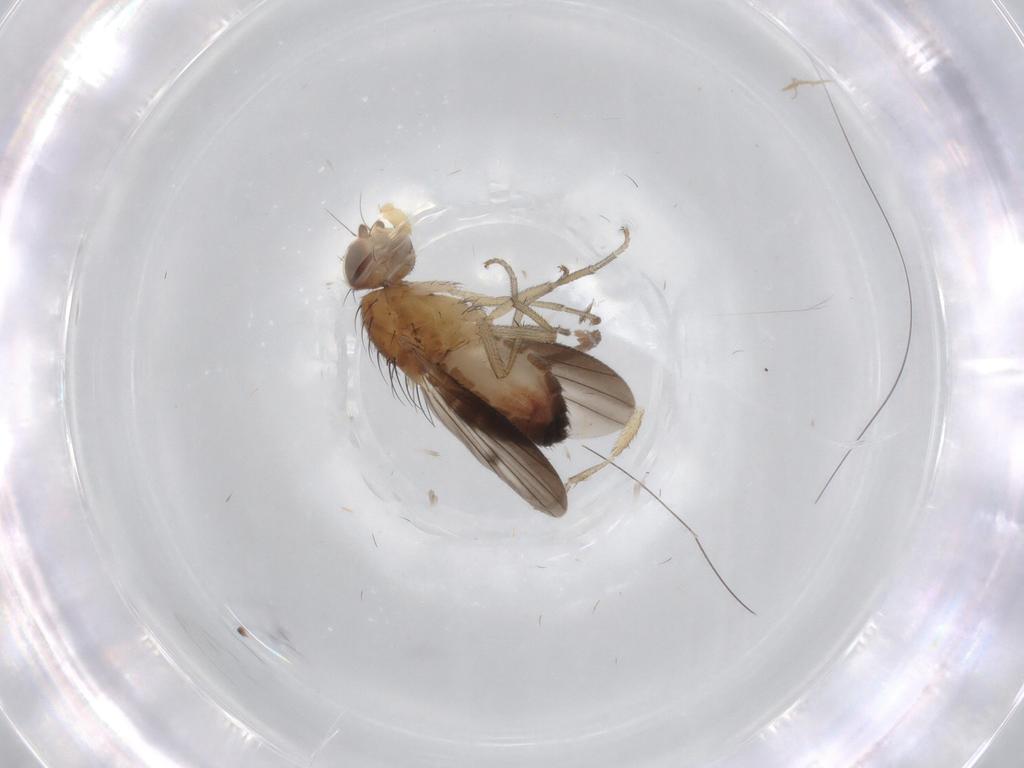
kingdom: Animalia
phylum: Arthropoda
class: Insecta
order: Diptera
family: Heleomyzidae
